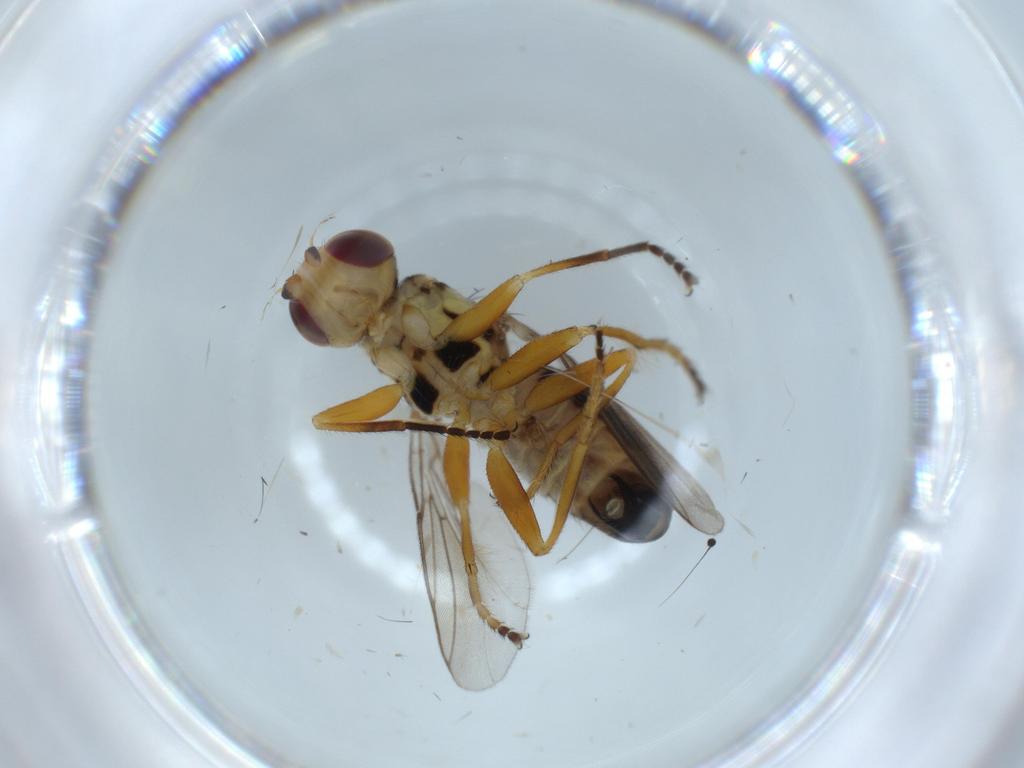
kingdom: Animalia
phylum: Arthropoda
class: Insecta
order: Diptera
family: Chloropidae
